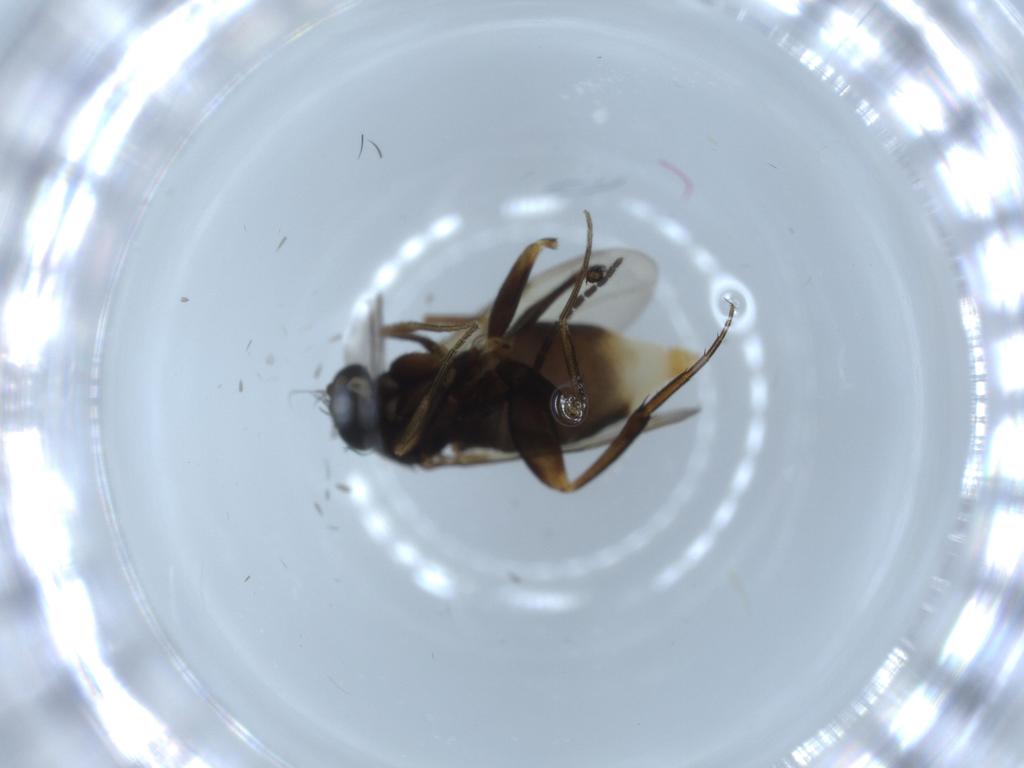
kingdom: Animalia
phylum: Arthropoda
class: Insecta
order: Diptera
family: Sciaridae
